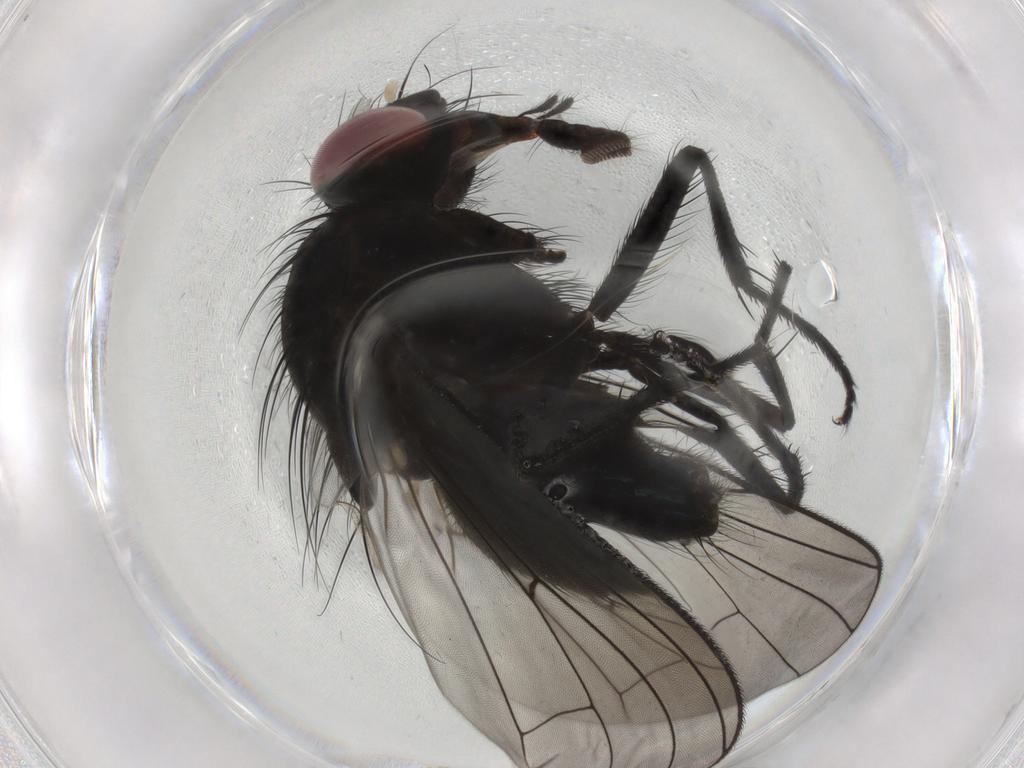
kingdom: Animalia
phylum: Arthropoda
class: Insecta
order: Diptera
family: Fannia
